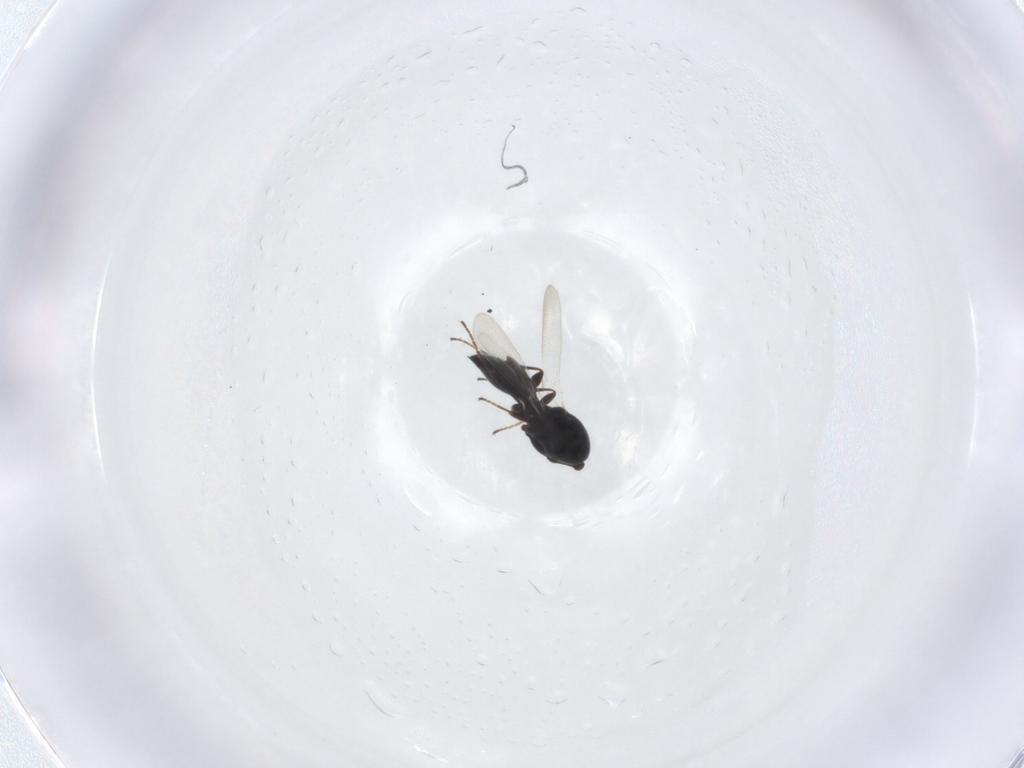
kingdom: Animalia
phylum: Arthropoda
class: Insecta
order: Hymenoptera
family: Platygastridae
